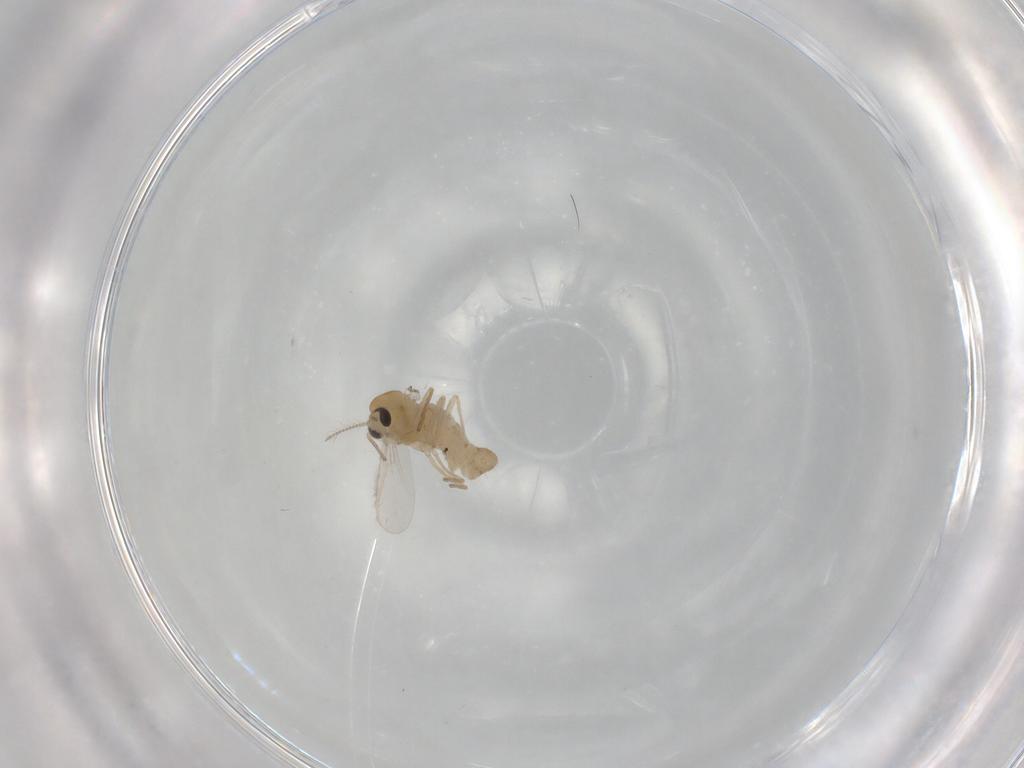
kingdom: Animalia
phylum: Arthropoda
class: Insecta
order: Diptera
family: Chironomidae
